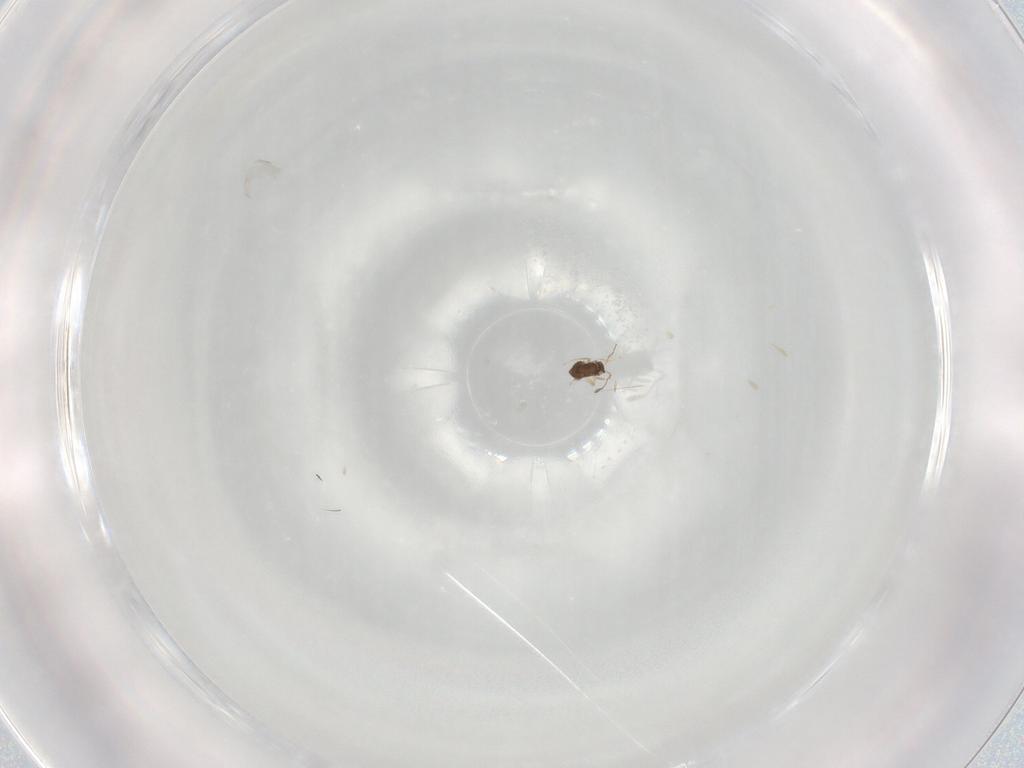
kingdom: Animalia
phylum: Arthropoda
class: Insecta
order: Hymenoptera
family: Mymaridae
